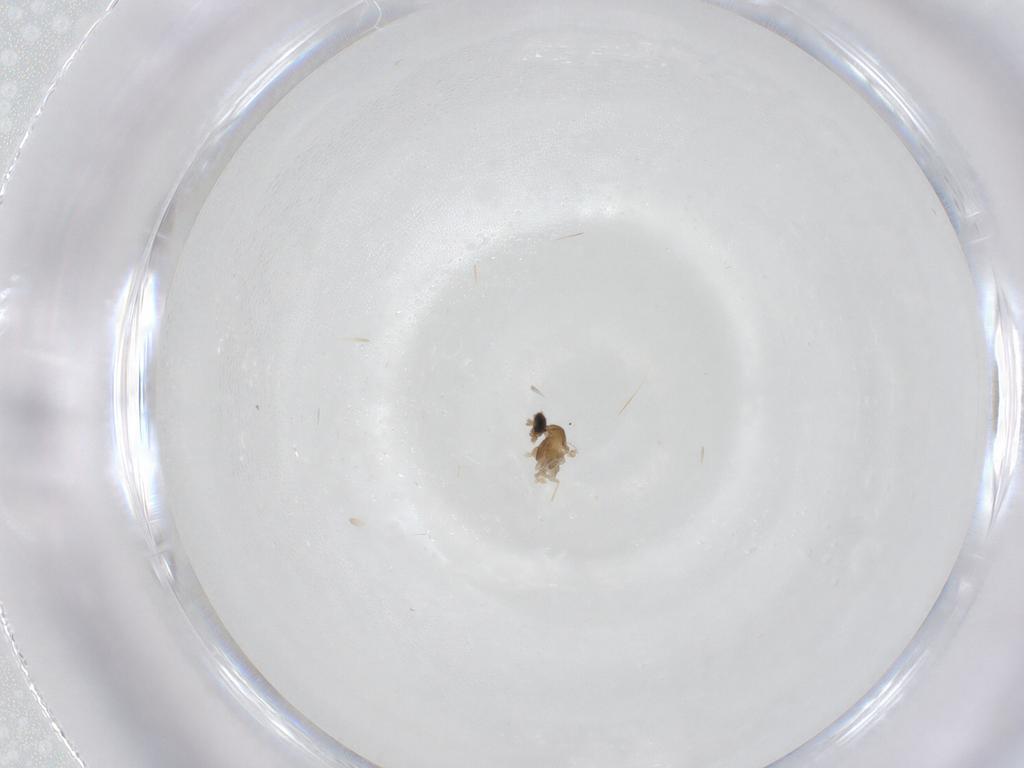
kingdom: Animalia
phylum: Arthropoda
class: Insecta
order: Diptera
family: Cecidomyiidae
